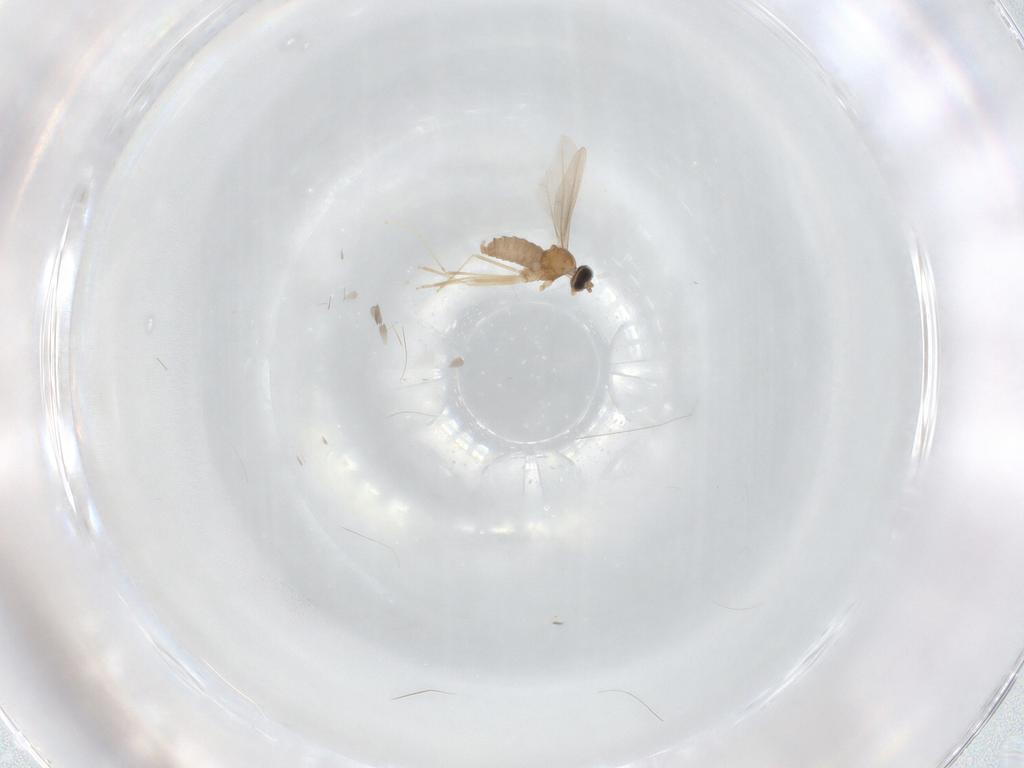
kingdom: Animalia
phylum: Arthropoda
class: Insecta
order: Diptera
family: Cecidomyiidae
